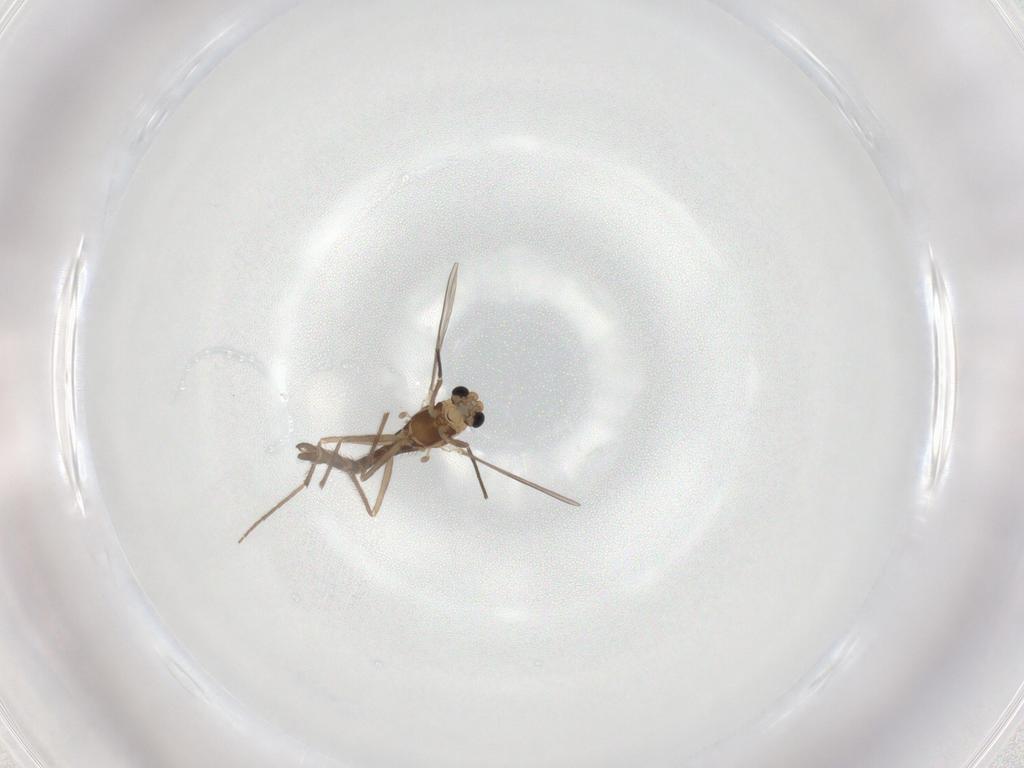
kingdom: Animalia
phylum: Arthropoda
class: Insecta
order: Diptera
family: Chironomidae
